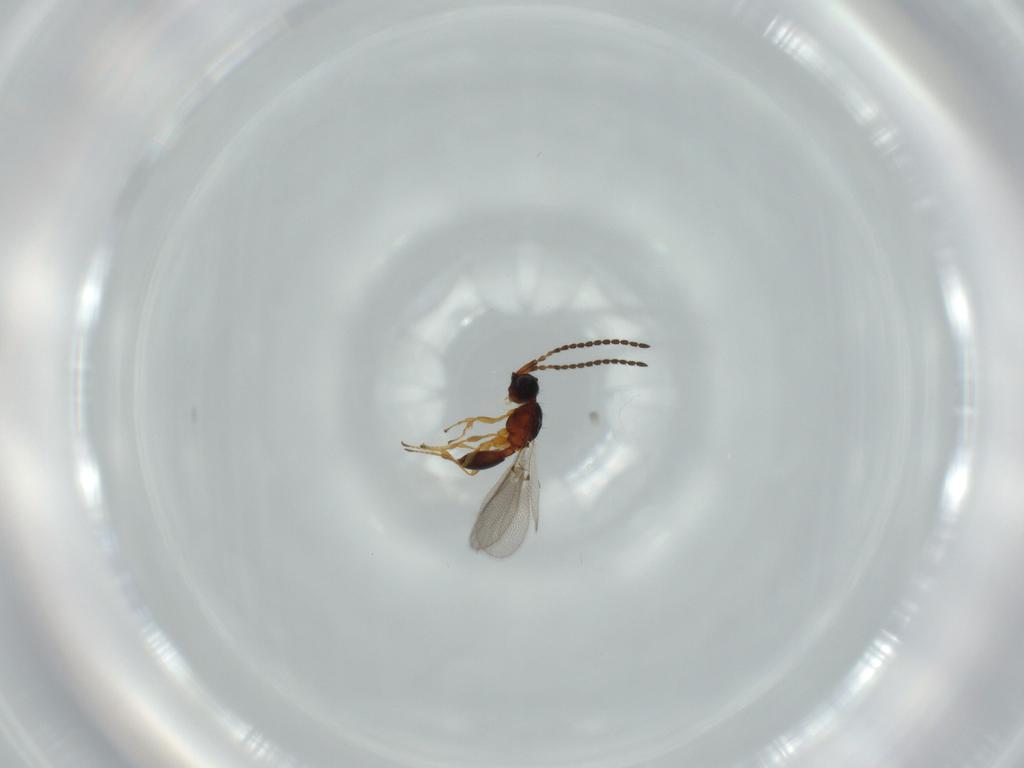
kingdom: Animalia
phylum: Arthropoda
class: Insecta
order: Hymenoptera
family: Diapriidae
